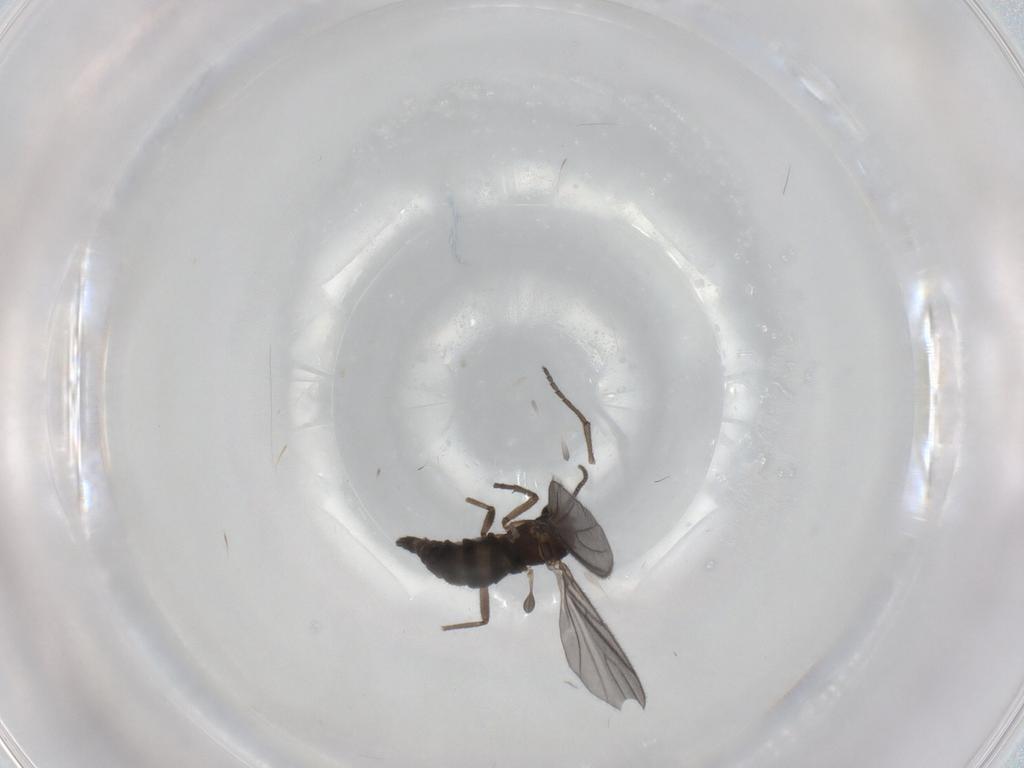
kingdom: Animalia
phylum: Arthropoda
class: Insecta
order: Diptera
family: Sciaridae
